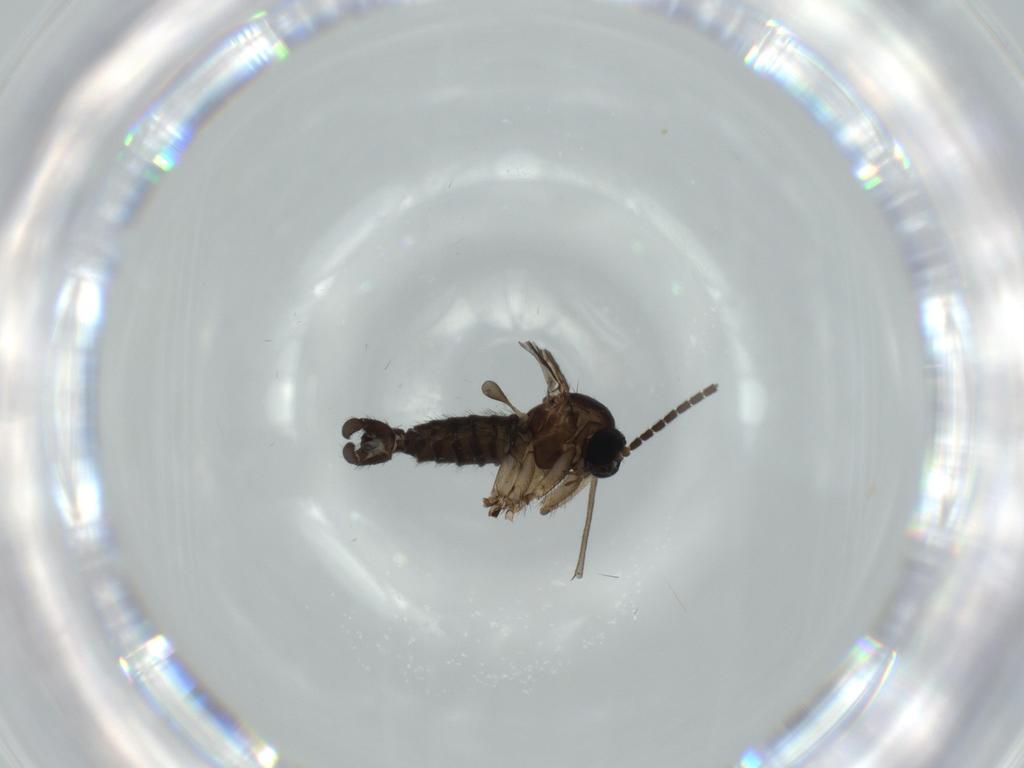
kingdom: Animalia
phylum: Arthropoda
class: Insecta
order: Diptera
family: Sciaridae
